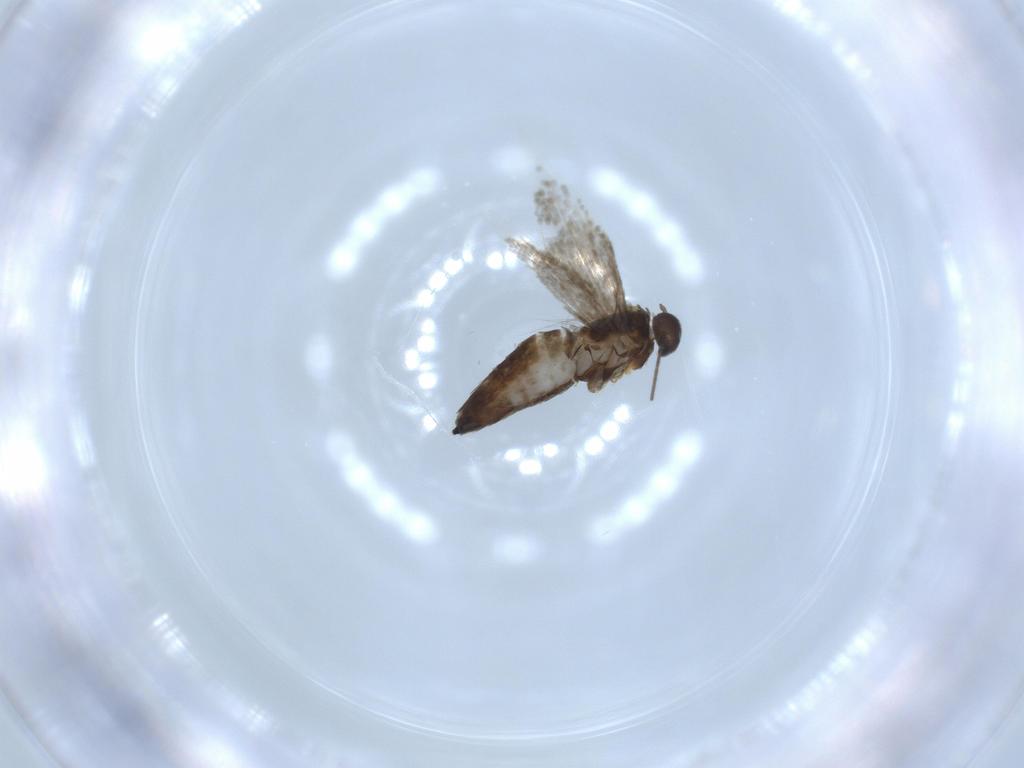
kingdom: Animalia
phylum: Arthropoda
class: Insecta
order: Lepidoptera
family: Heliozelidae
